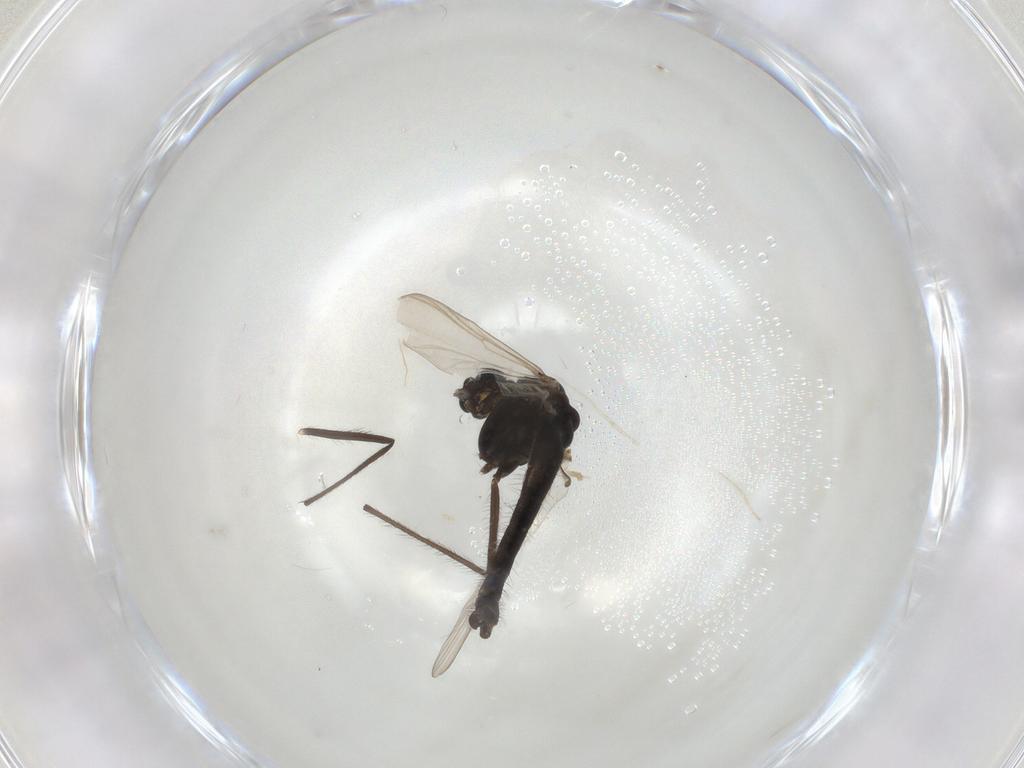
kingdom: Animalia
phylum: Arthropoda
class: Insecta
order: Diptera
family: Chironomidae
